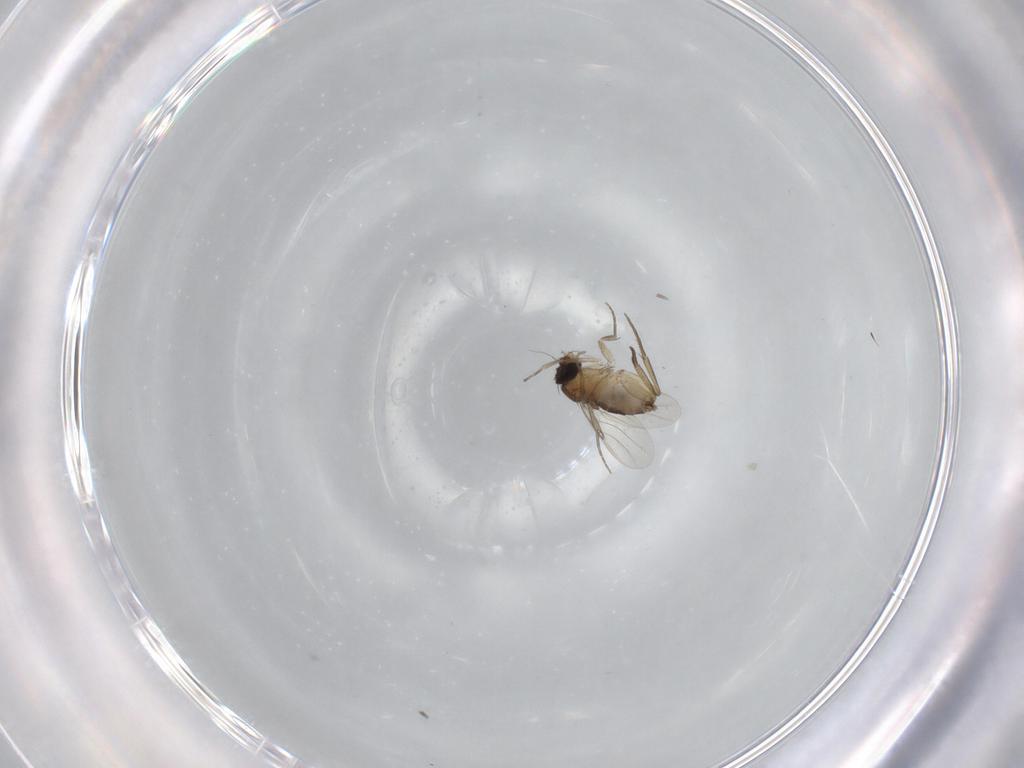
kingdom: Animalia
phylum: Arthropoda
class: Insecta
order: Diptera
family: Phoridae
